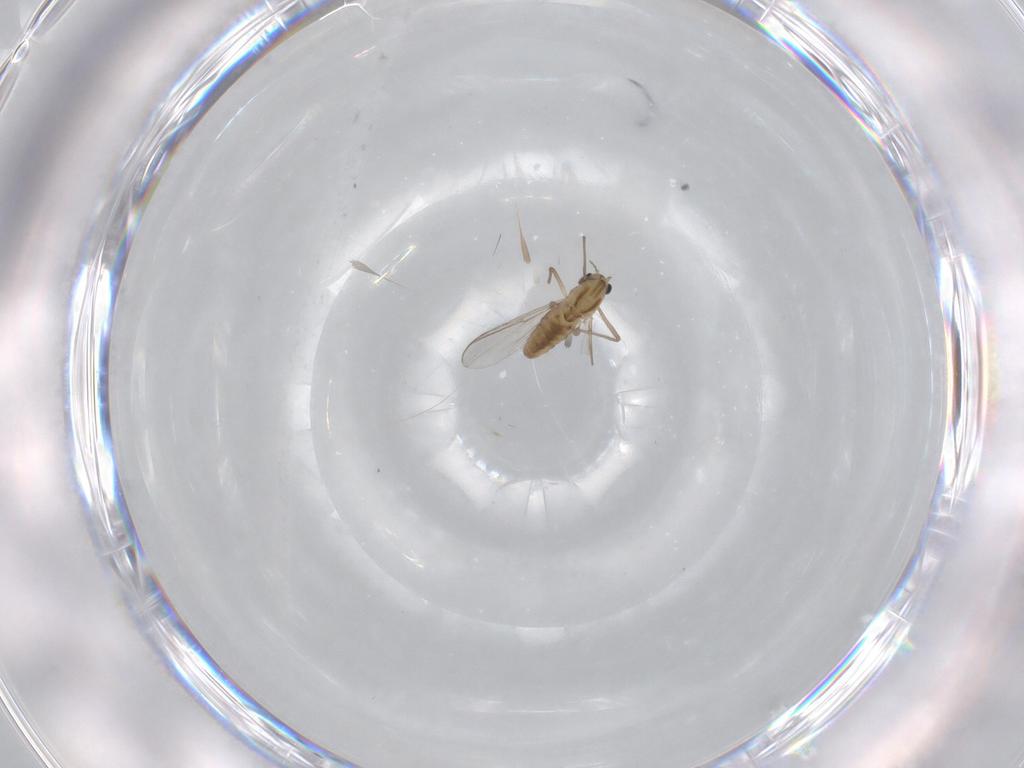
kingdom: Animalia
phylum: Arthropoda
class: Insecta
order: Diptera
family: Chironomidae
